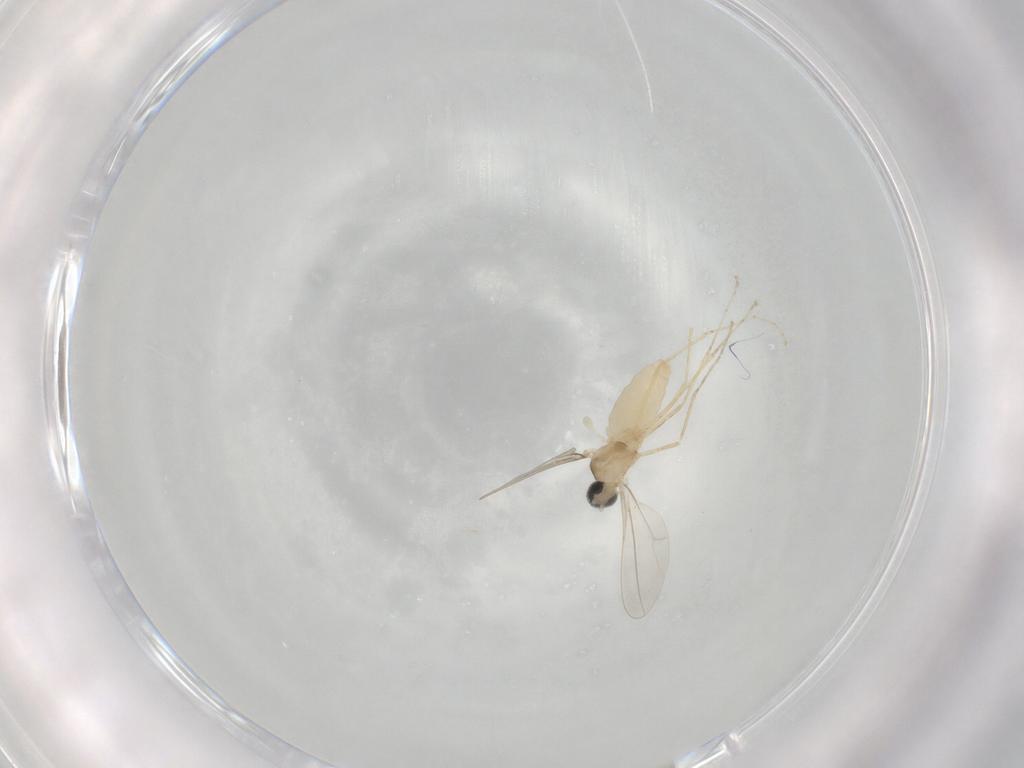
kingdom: Animalia
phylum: Arthropoda
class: Insecta
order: Diptera
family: Cecidomyiidae
